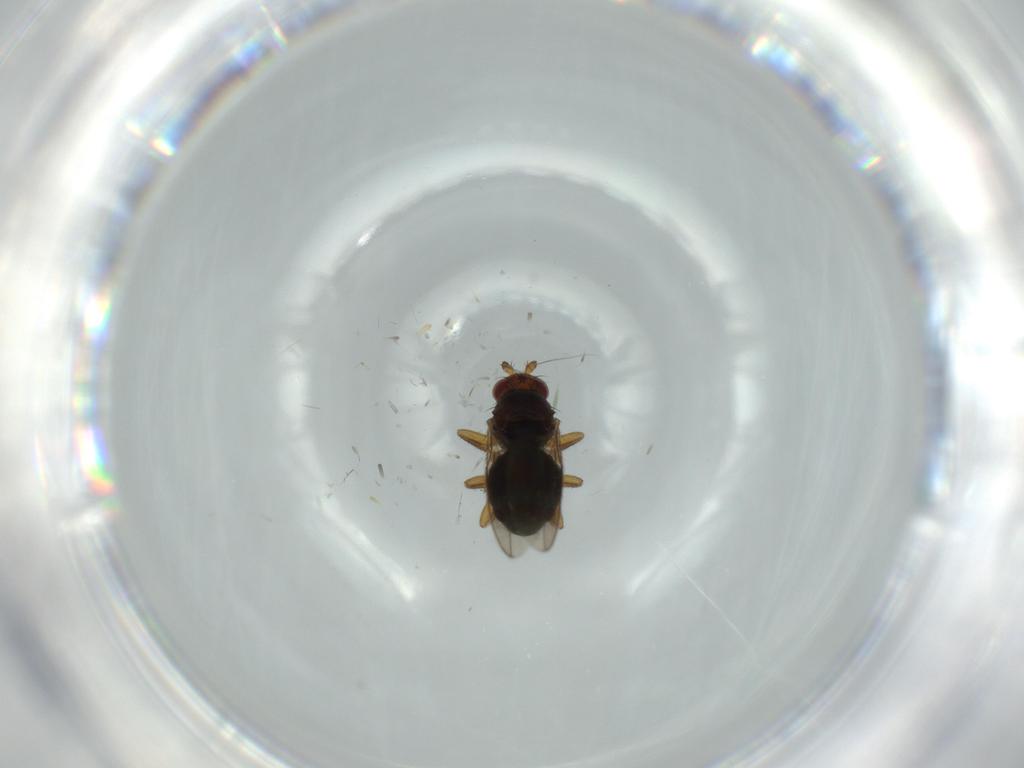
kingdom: Animalia
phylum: Arthropoda
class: Insecta
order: Diptera
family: Sphaeroceridae
